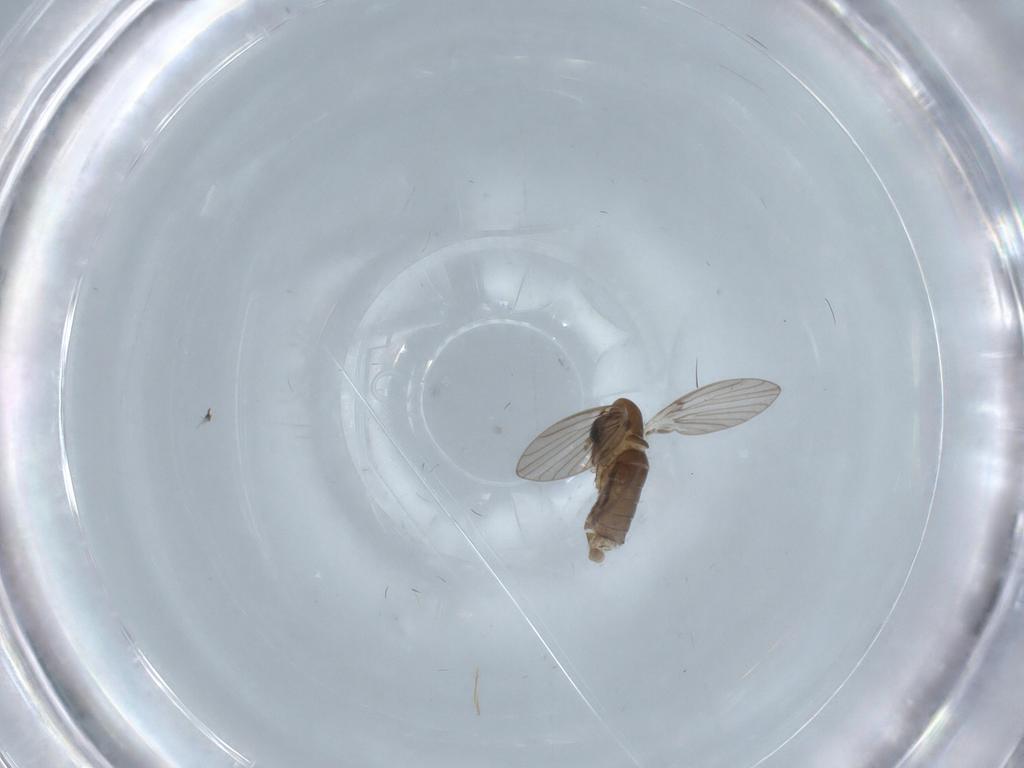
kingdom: Animalia
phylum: Arthropoda
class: Insecta
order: Diptera
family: Psychodidae
